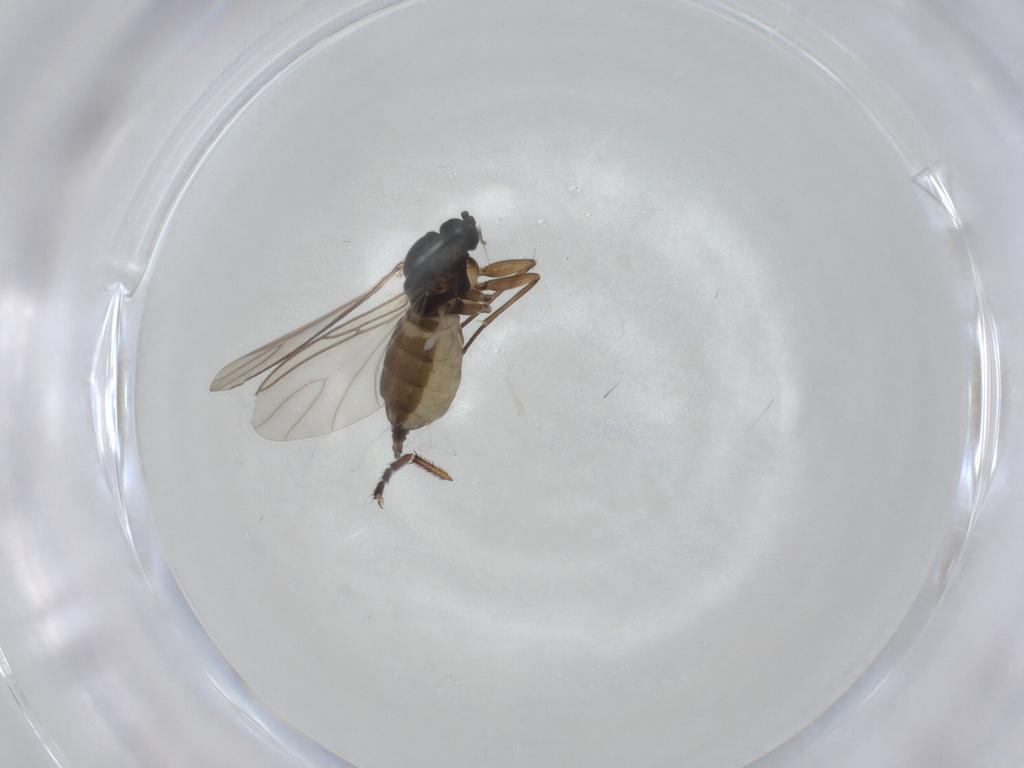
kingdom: Animalia
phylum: Arthropoda
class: Insecta
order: Diptera
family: Sciaridae
